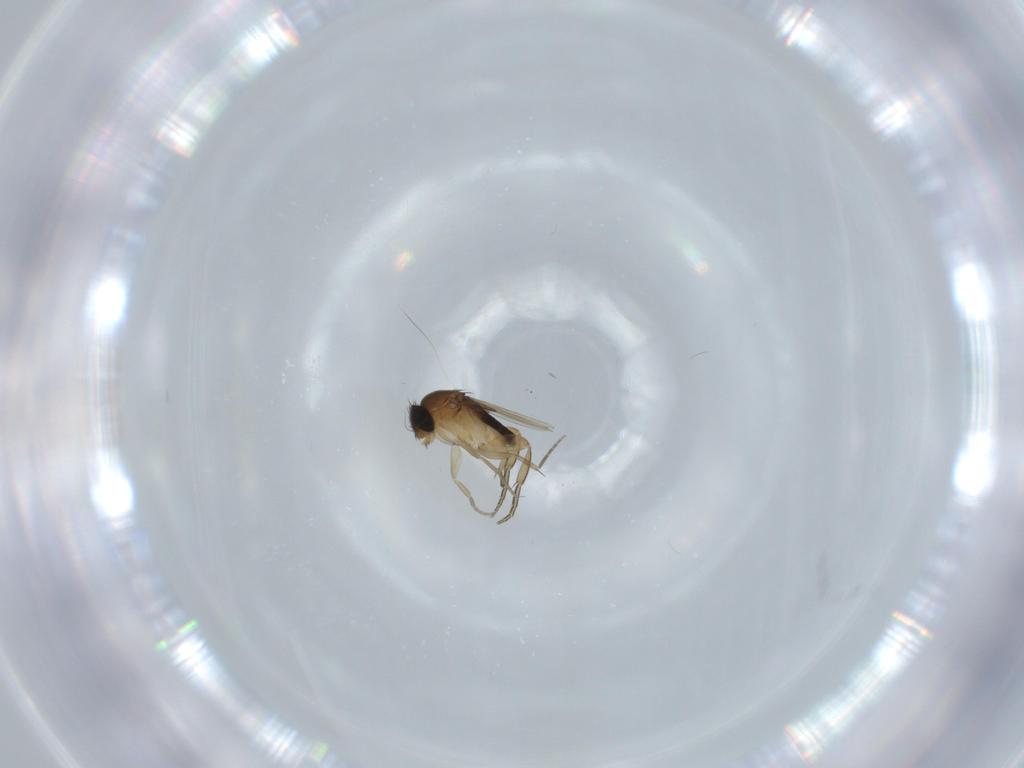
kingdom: Animalia
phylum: Arthropoda
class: Insecta
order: Diptera
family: Phoridae
